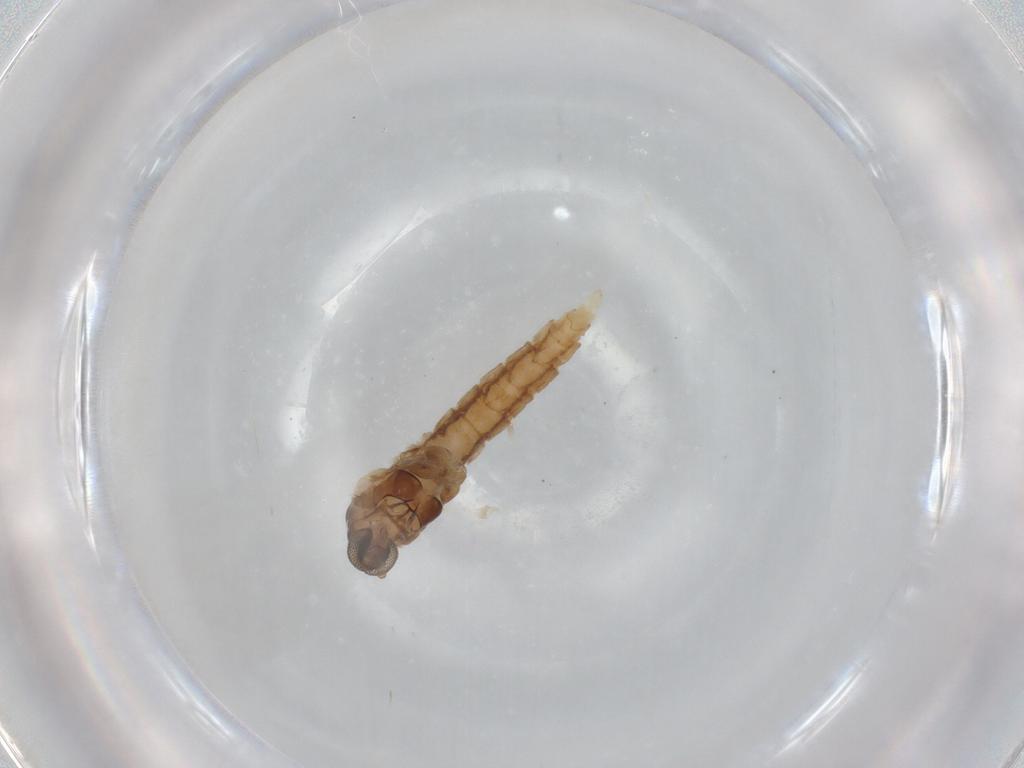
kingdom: Animalia
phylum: Arthropoda
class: Insecta
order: Diptera
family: Cecidomyiidae
